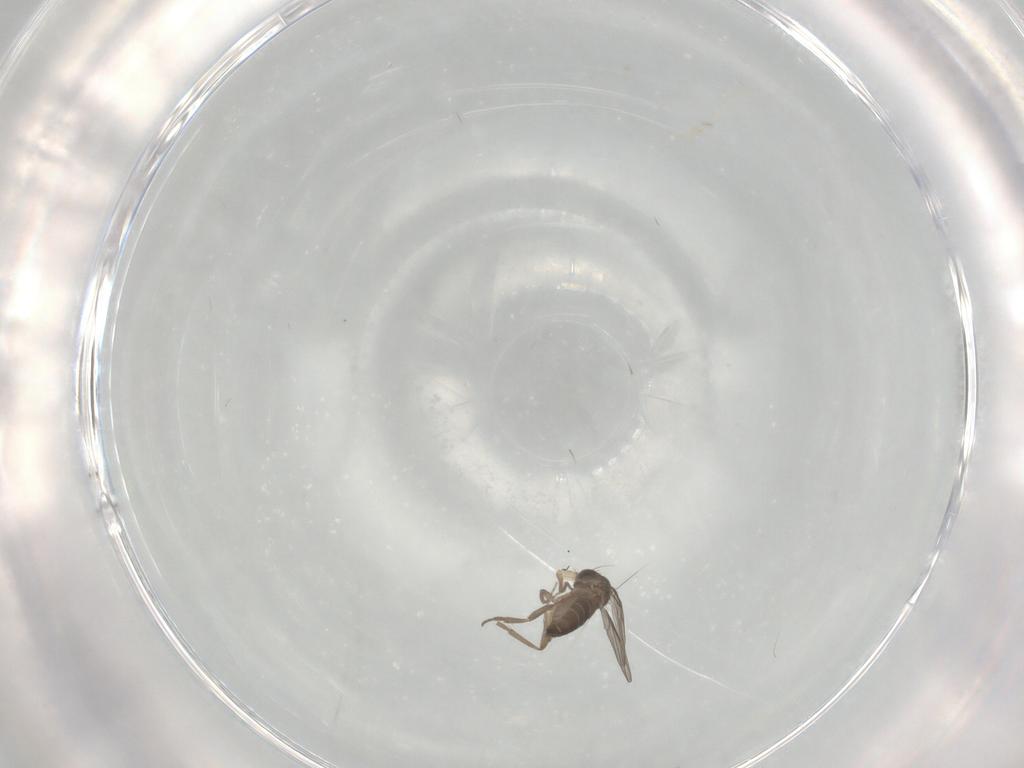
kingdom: Animalia
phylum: Arthropoda
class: Insecta
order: Diptera
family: Phoridae
